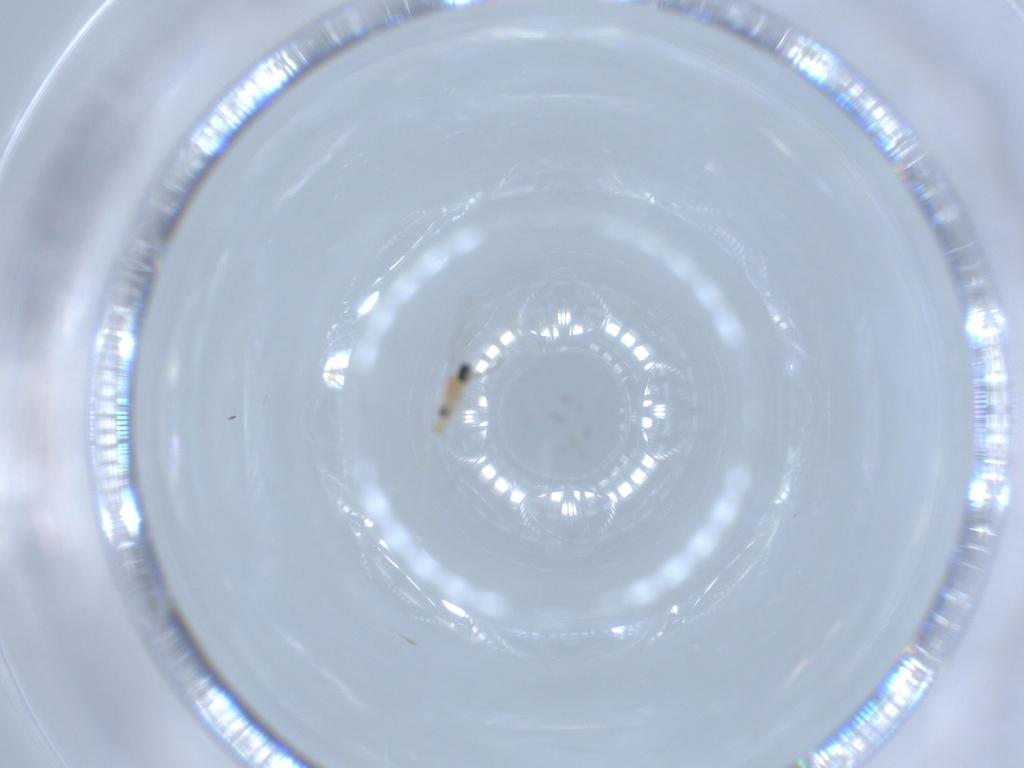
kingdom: Animalia
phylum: Arthropoda
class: Insecta
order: Diptera
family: Cecidomyiidae
